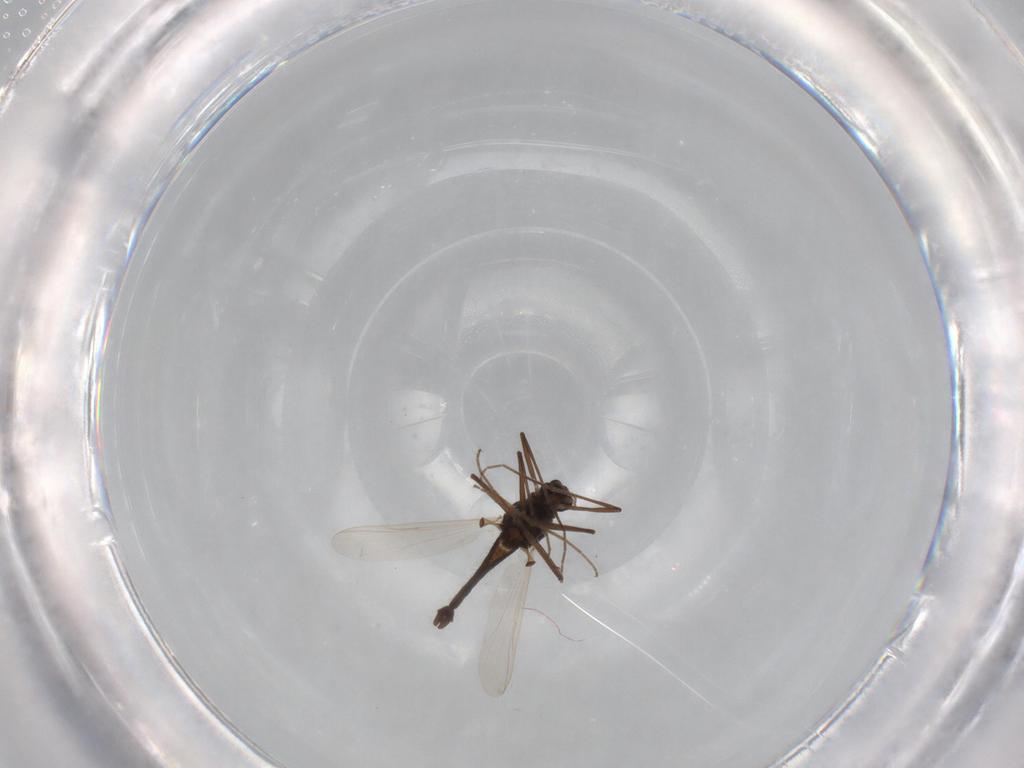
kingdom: Animalia
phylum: Arthropoda
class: Insecta
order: Diptera
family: Chironomidae
